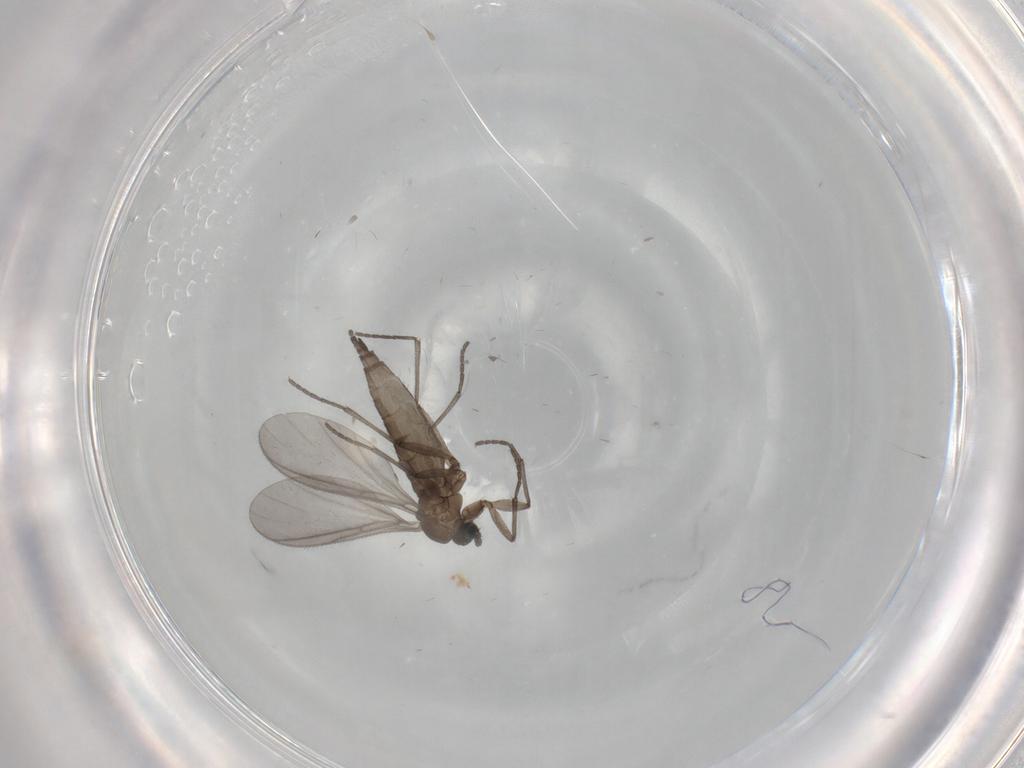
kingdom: Animalia
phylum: Arthropoda
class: Insecta
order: Diptera
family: Sciaridae
